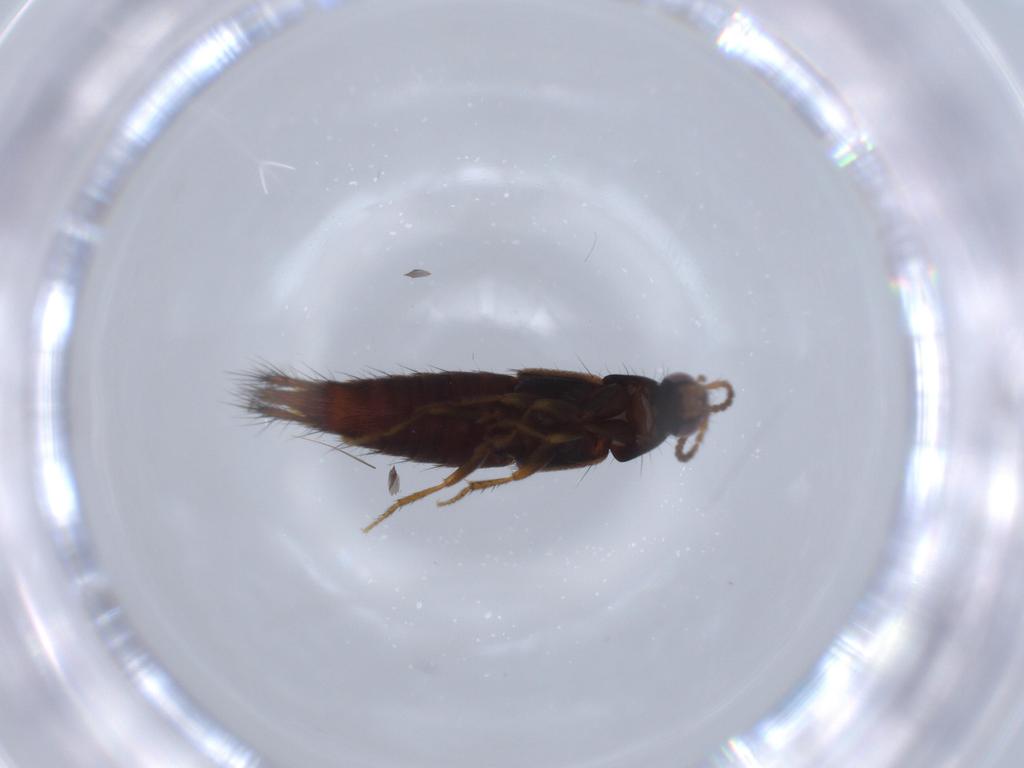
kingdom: Animalia
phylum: Arthropoda
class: Insecta
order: Coleoptera
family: Staphylinidae
